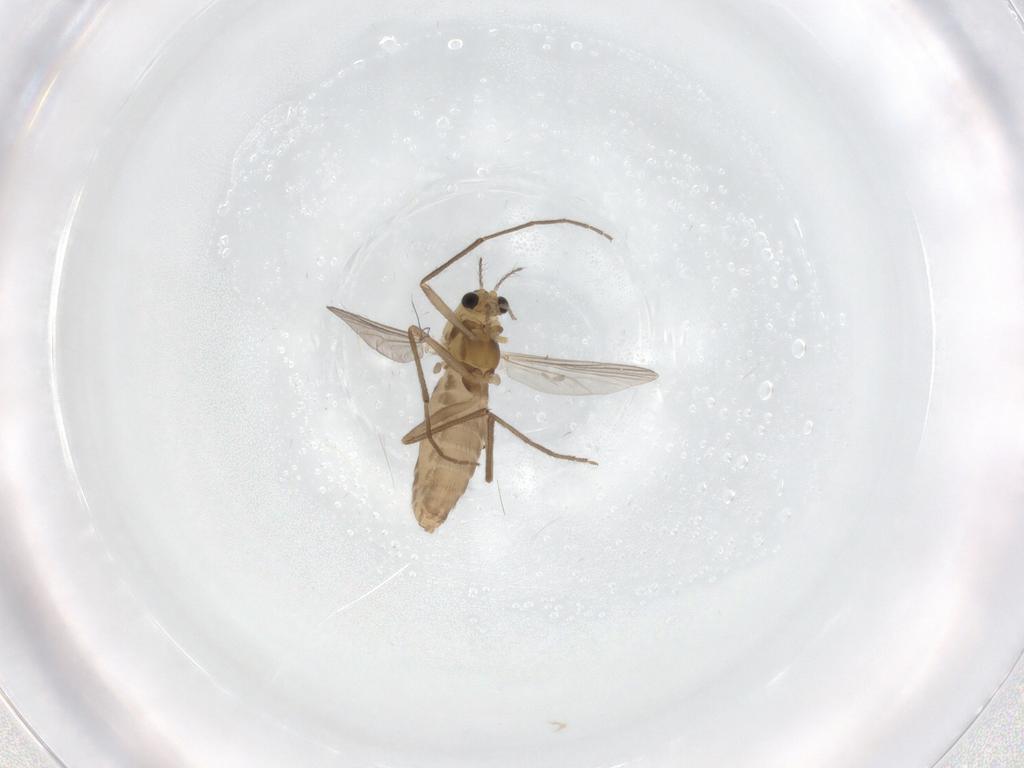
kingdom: Animalia
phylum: Arthropoda
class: Insecta
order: Diptera
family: Chironomidae
